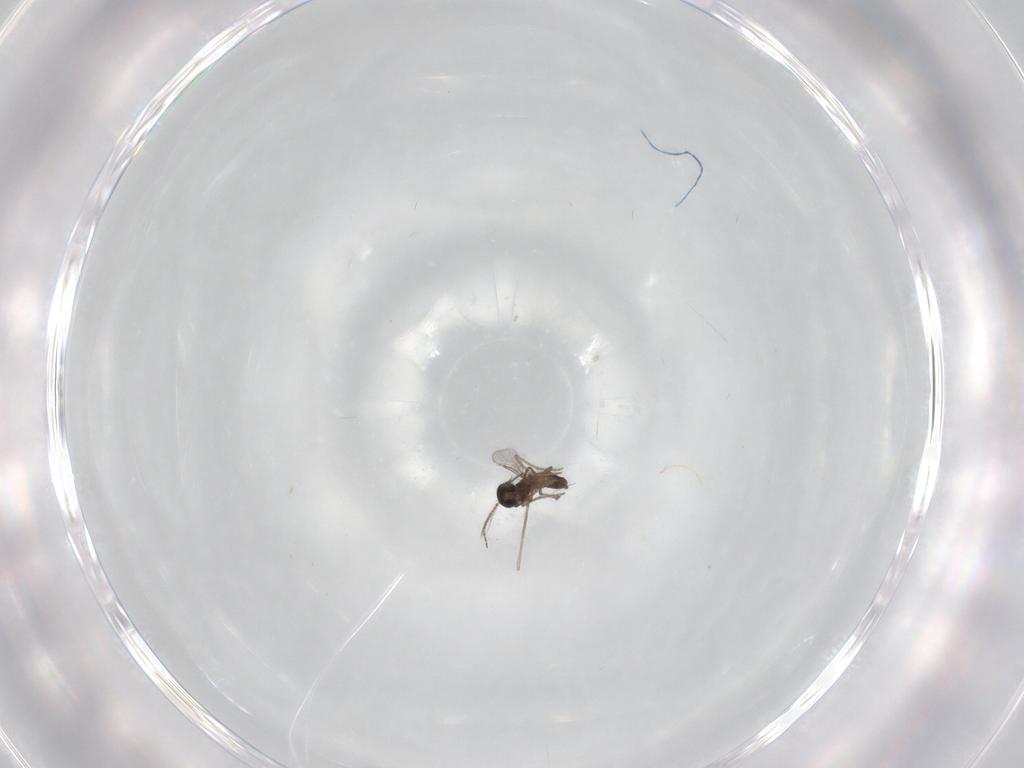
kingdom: Animalia
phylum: Arthropoda
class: Insecta
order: Diptera
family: Ceratopogonidae
